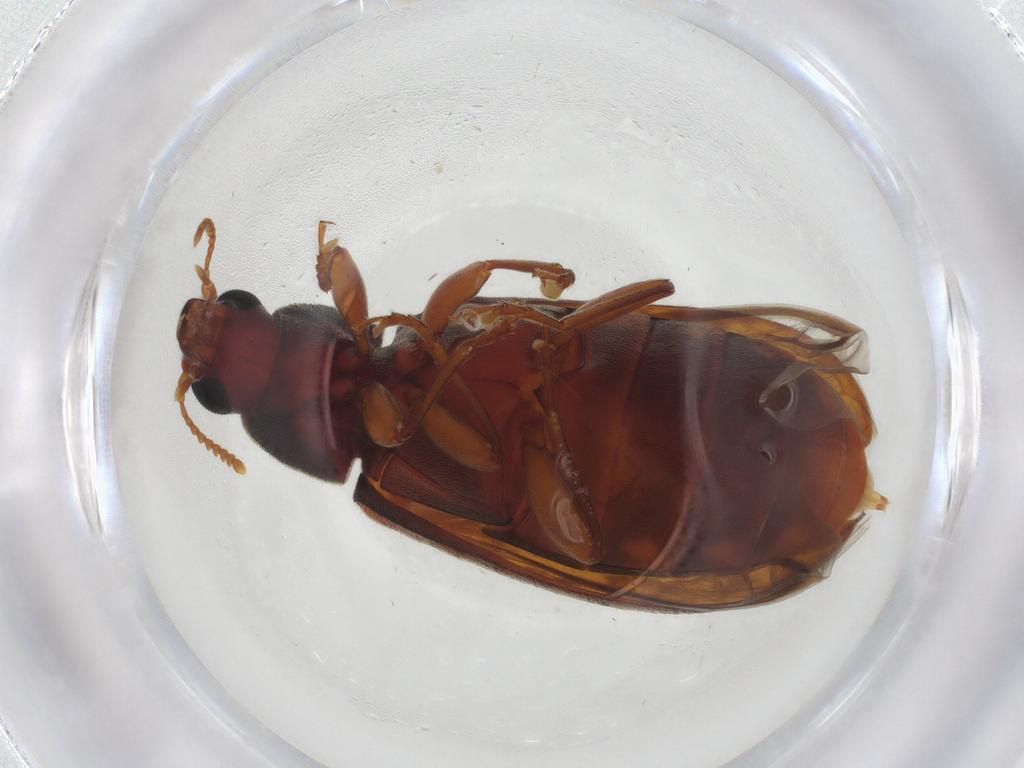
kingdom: Animalia
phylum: Arthropoda
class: Insecta
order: Coleoptera
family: Mycteridae
